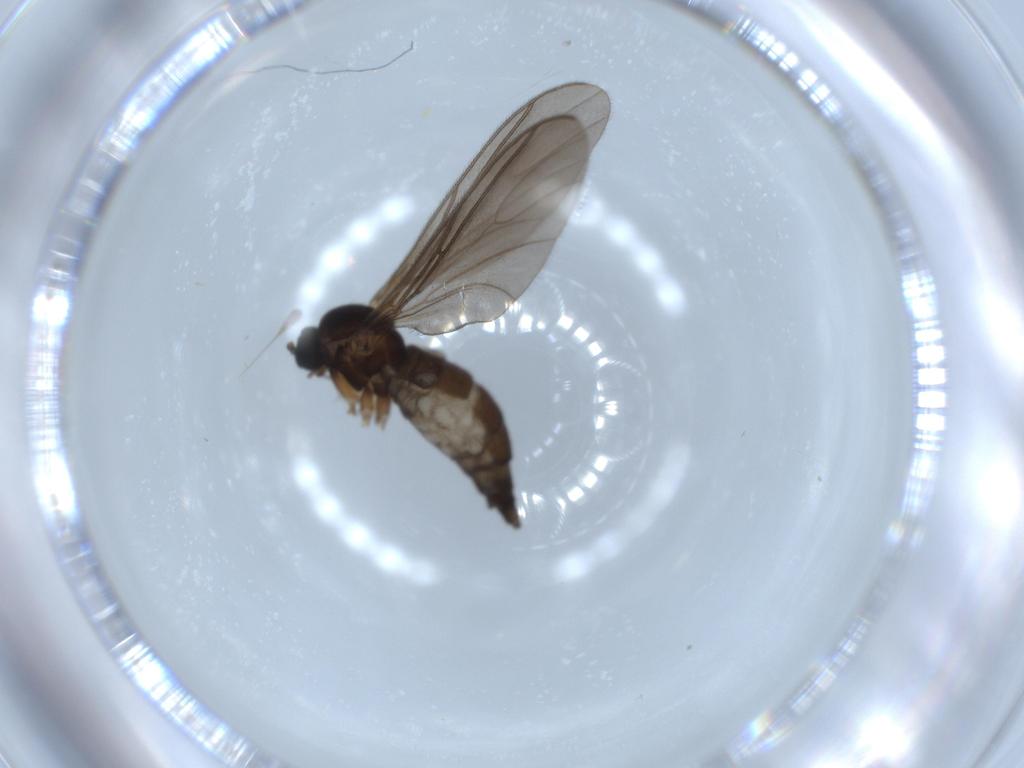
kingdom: Animalia
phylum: Arthropoda
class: Insecta
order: Diptera
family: Sciaridae
